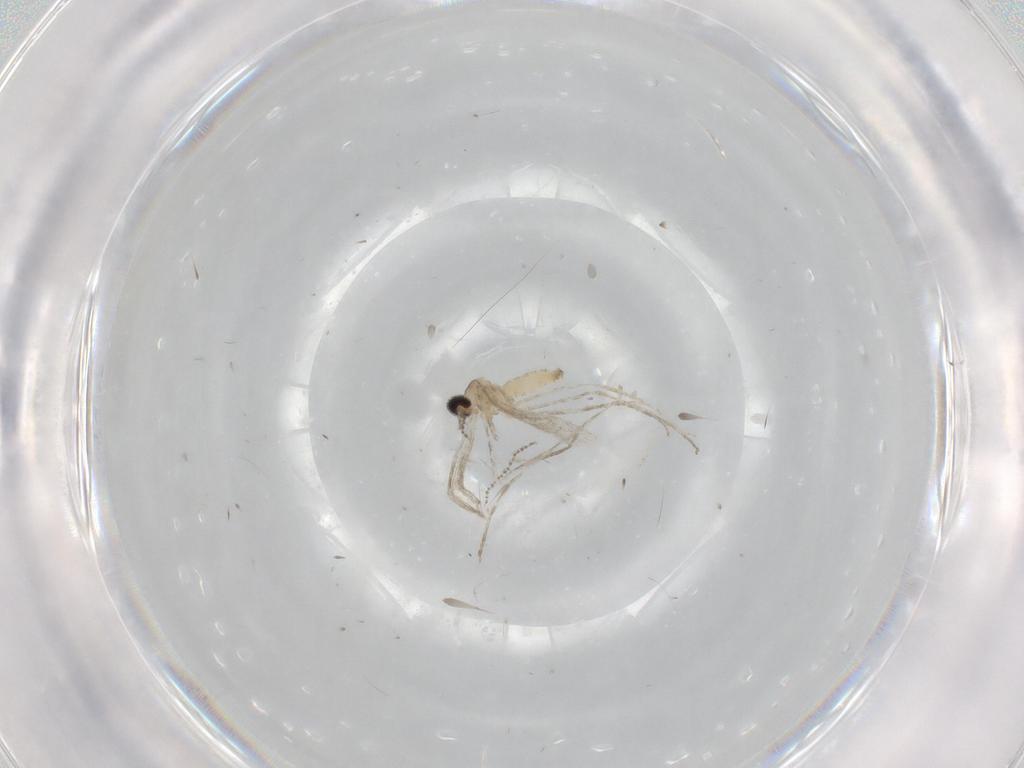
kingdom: Animalia
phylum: Arthropoda
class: Insecta
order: Diptera
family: Cecidomyiidae
